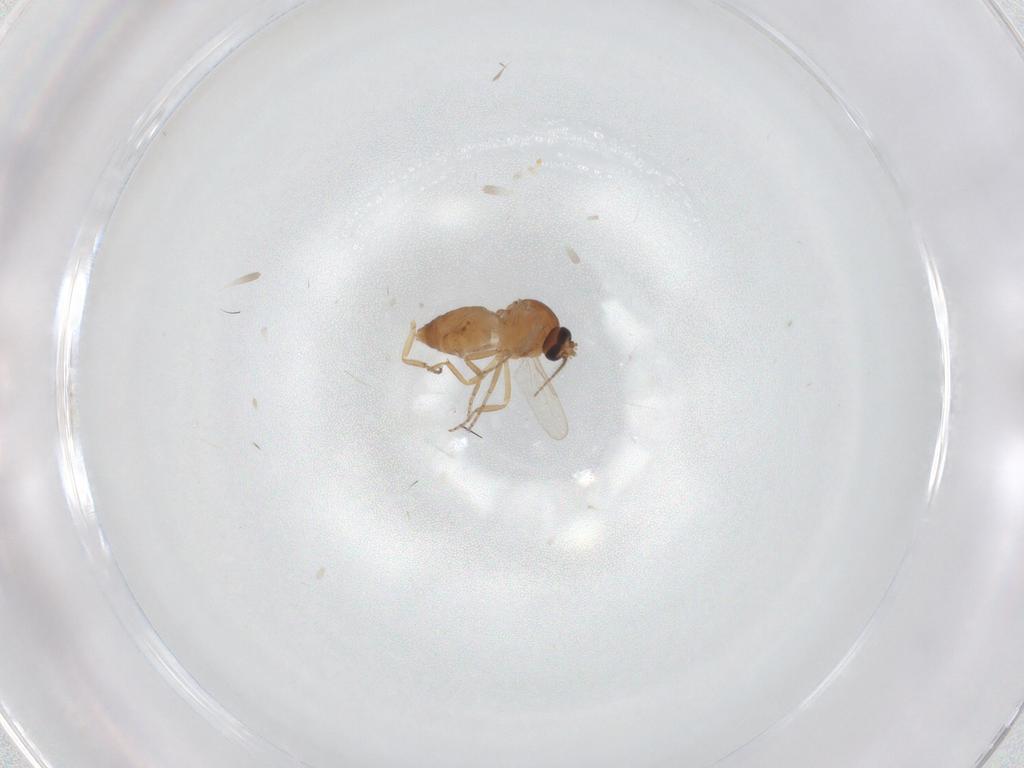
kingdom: Animalia
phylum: Arthropoda
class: Insecta
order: Diptera
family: Ceratopogonidae
